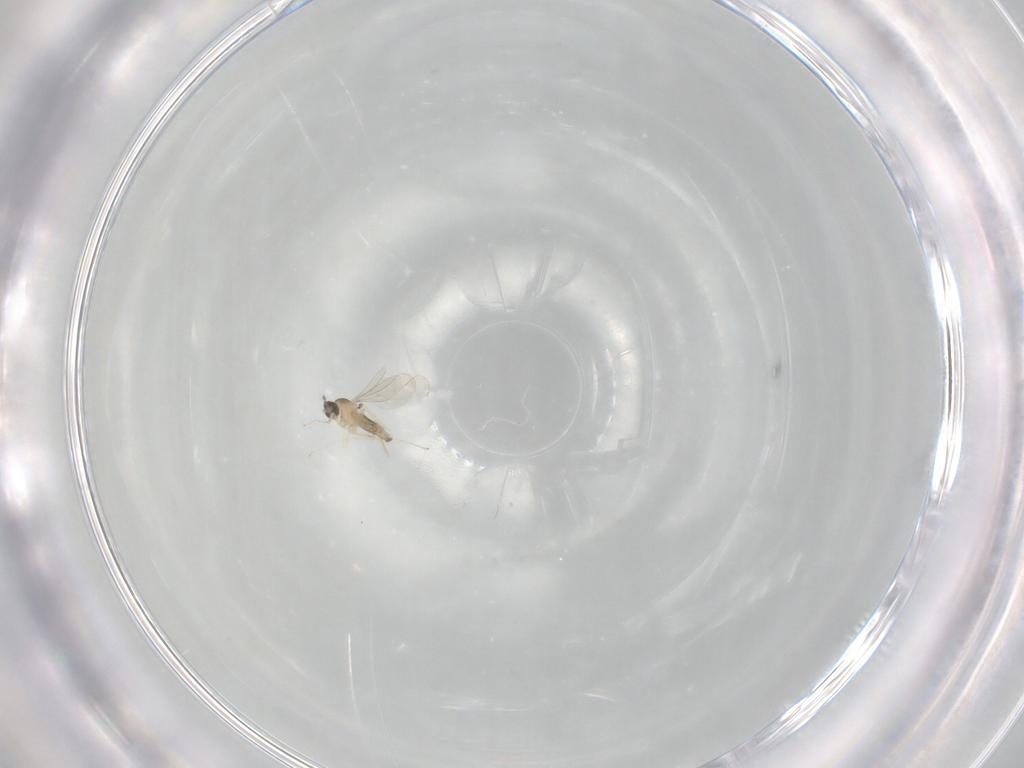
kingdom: Animalia
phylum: Arthropoda
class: Insecta
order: Diptera
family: Cecidomyiidae
